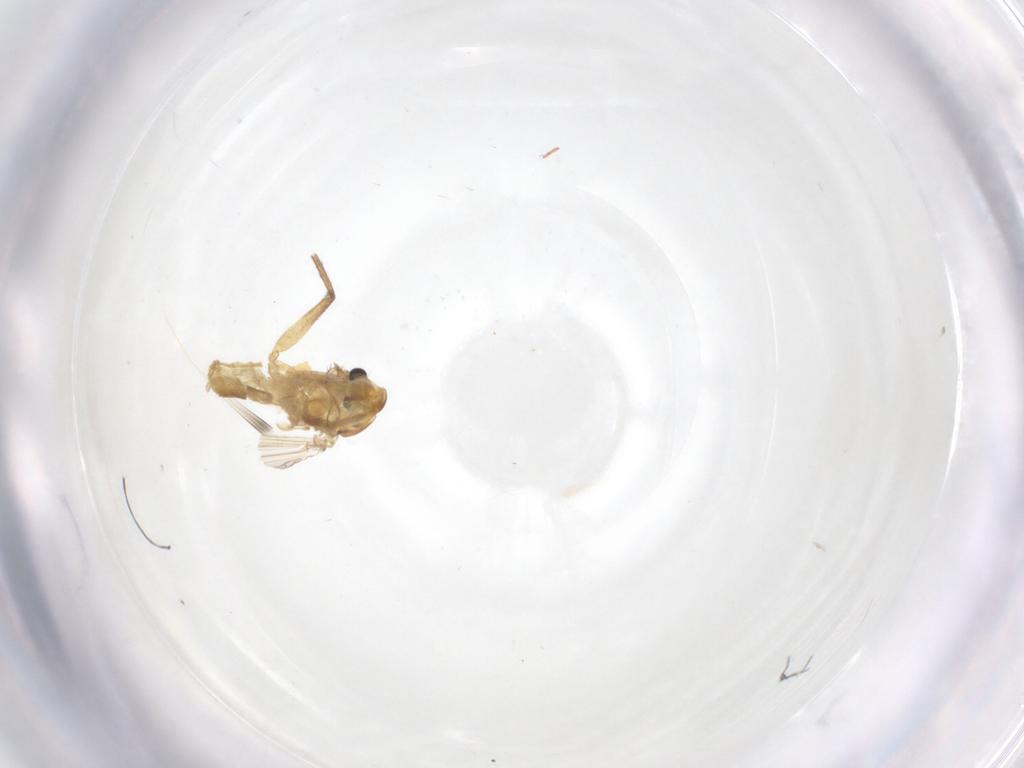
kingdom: Animalia
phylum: Arthropoda
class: Insecta
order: Diptera
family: Chironomidae
